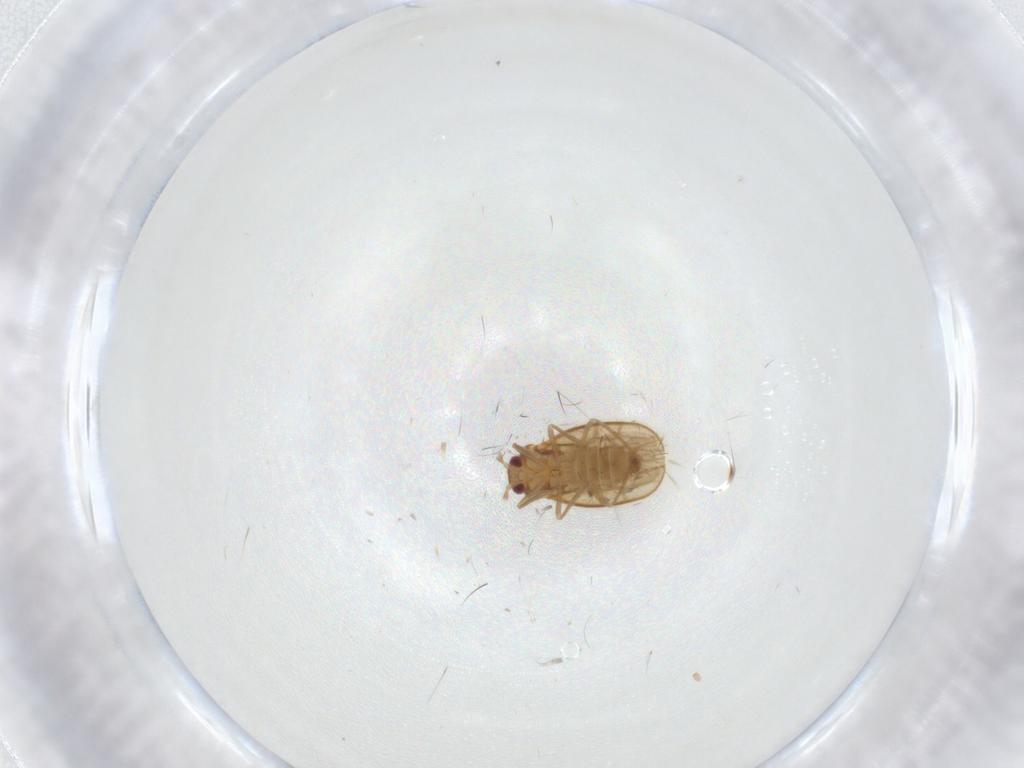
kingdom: Animalia
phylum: Arthropoda
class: Insecta
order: Hemiptera
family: Schizopteridae
